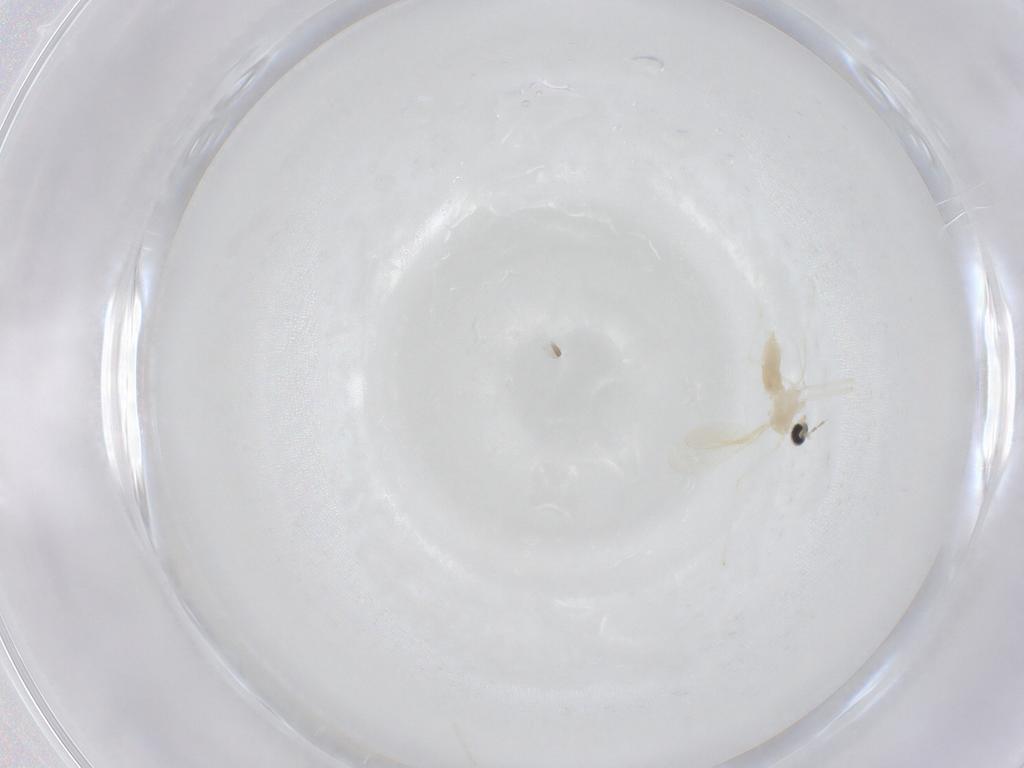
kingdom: Animalia
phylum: Arthropoda
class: Insecta
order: Diptera
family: Cecidomyiidae
